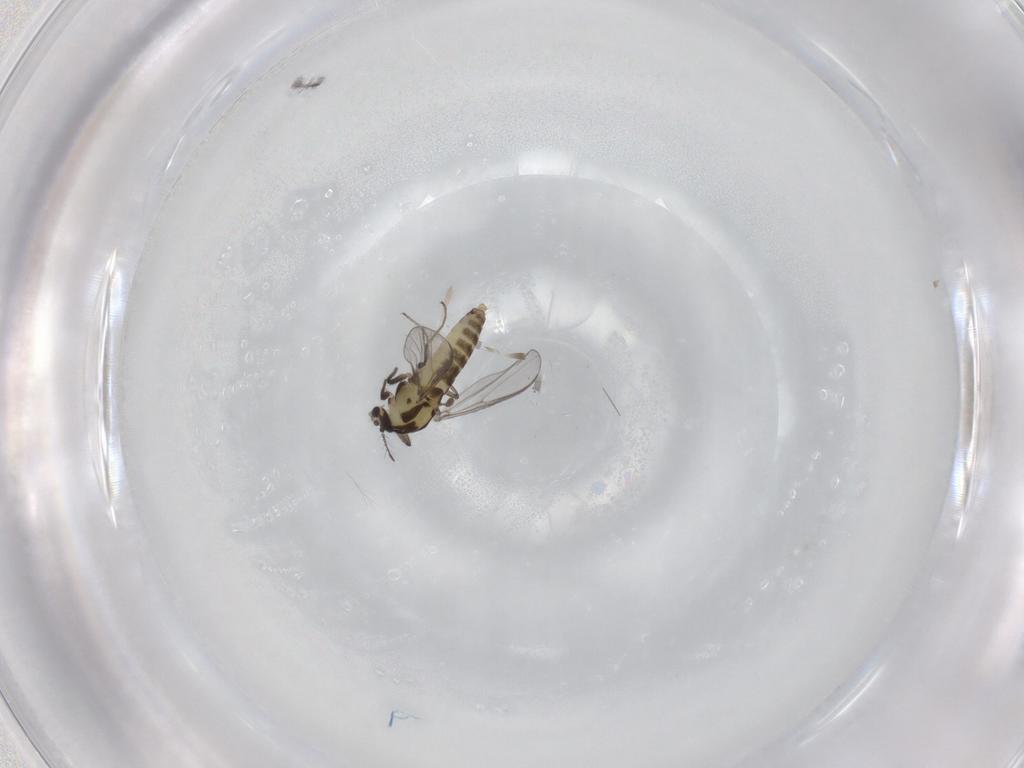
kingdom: Animalia
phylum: Arthropoda
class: Insecta
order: Diptera
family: Chironomidae
